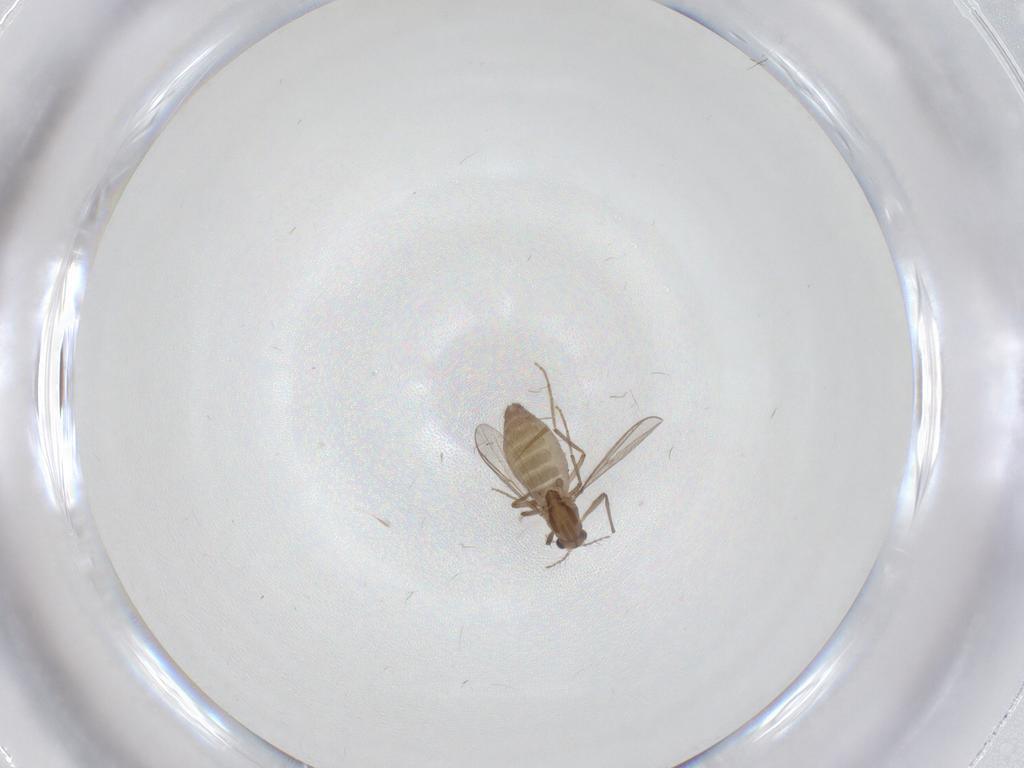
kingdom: Animalia
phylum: Arthropoda
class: Insecta
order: Diptera
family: Chironomidae
